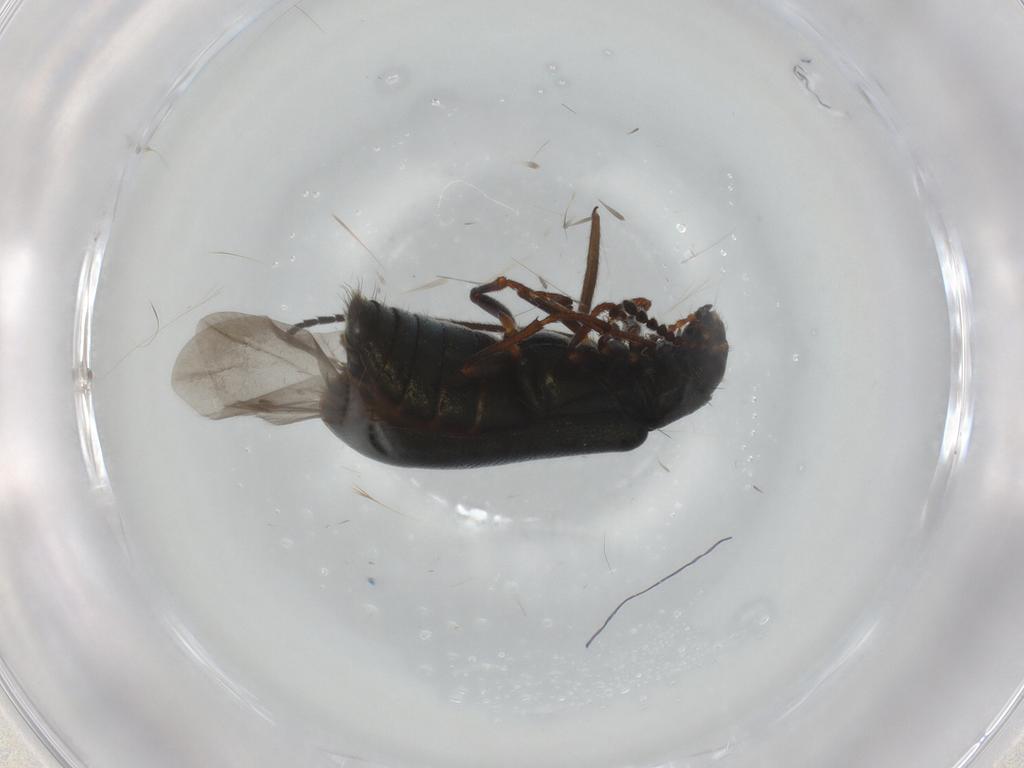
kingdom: Animalia
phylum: Arthropoda
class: Insecta
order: Coleoptera
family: Melyridae
